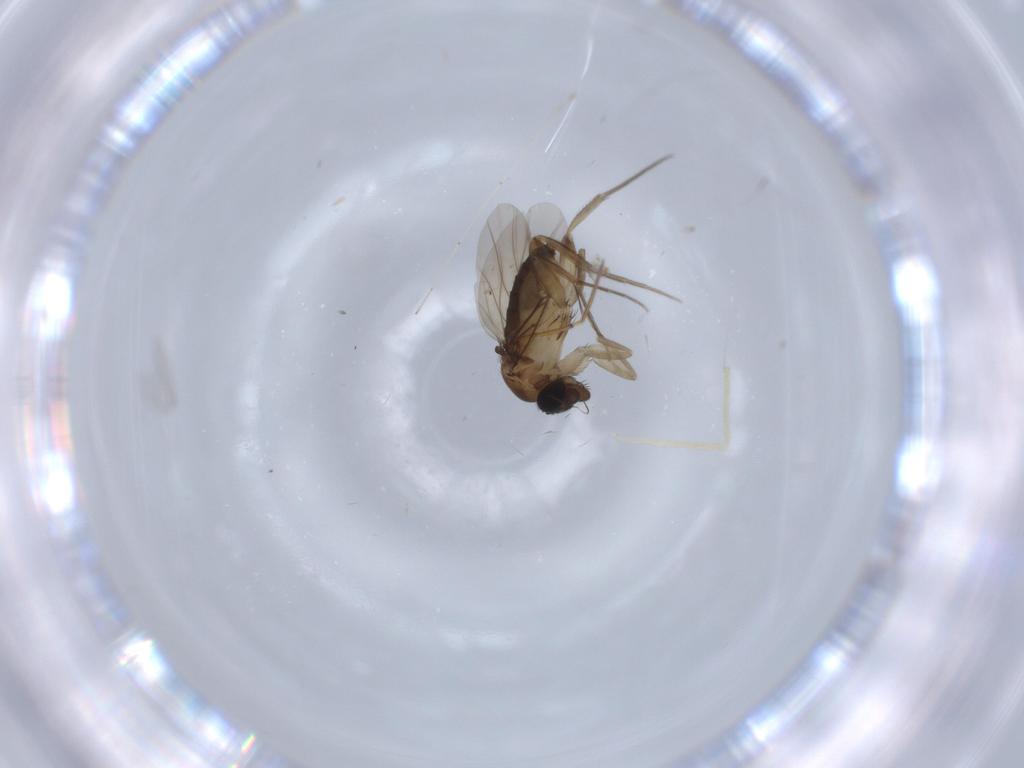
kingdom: Animalia
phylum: Arthropoda
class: Insecta
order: Diptera
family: Phoridae
